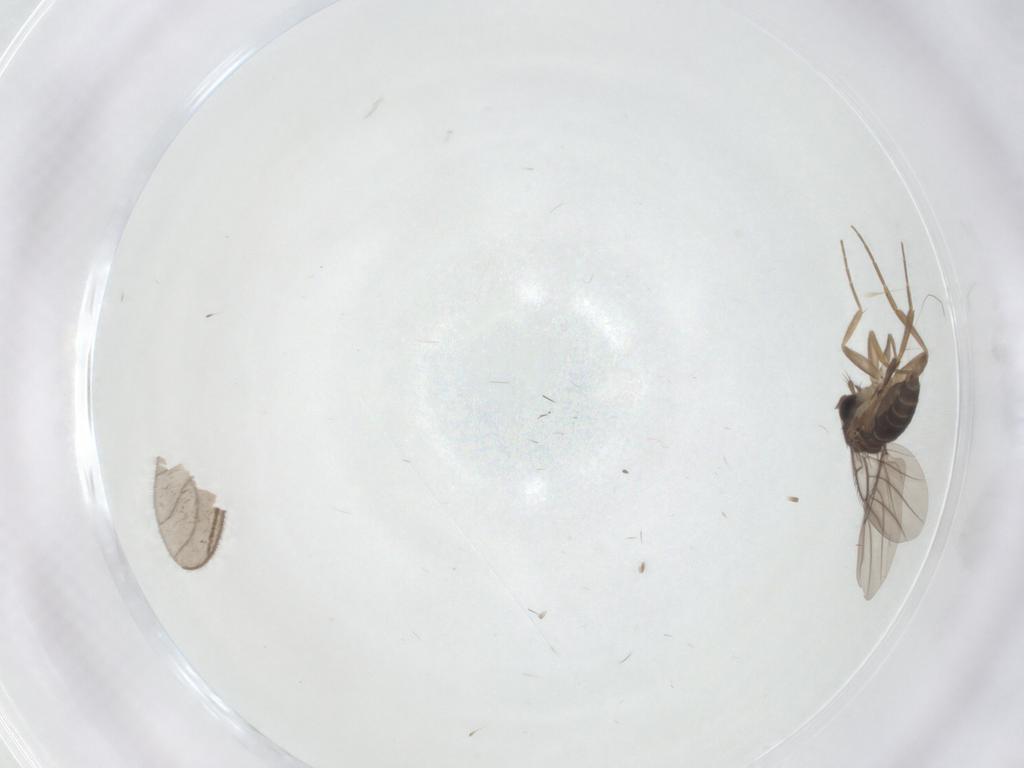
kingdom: Animalia
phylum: Arthropoda
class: Insecta
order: Diptera
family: Phoridae
